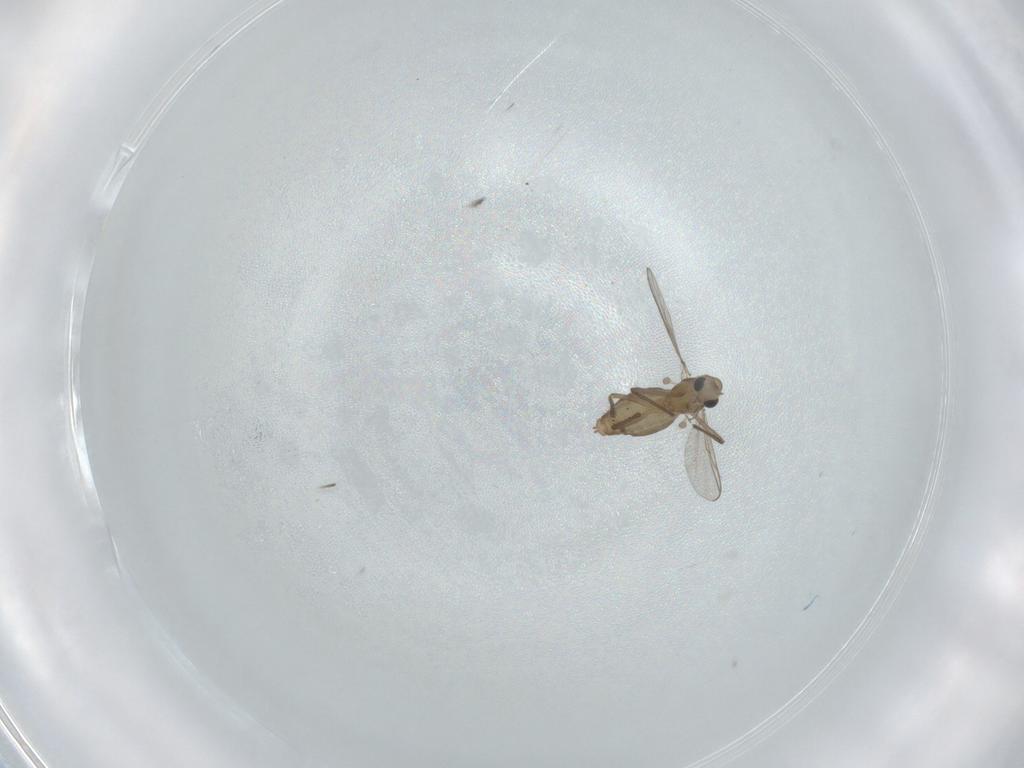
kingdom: Animalia
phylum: Arthropoda
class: Insecta
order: Diptera
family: Chironomidae
